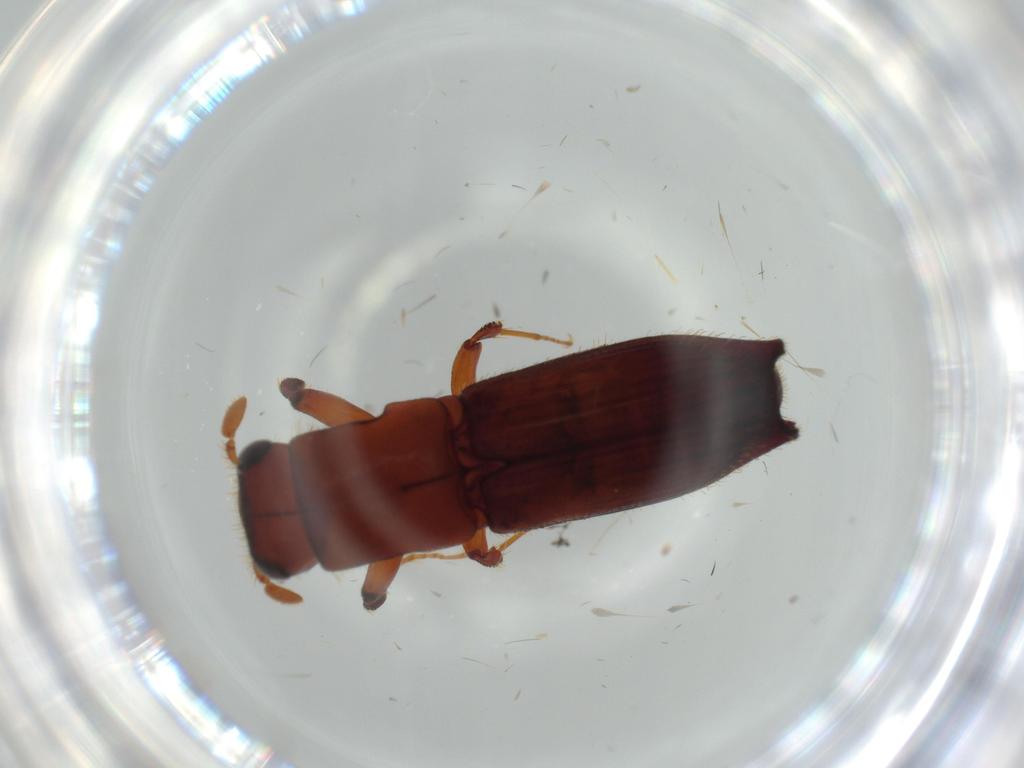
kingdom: Animalia
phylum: Arthropoda
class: Insecta
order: Coleoptera
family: Curculionidae
